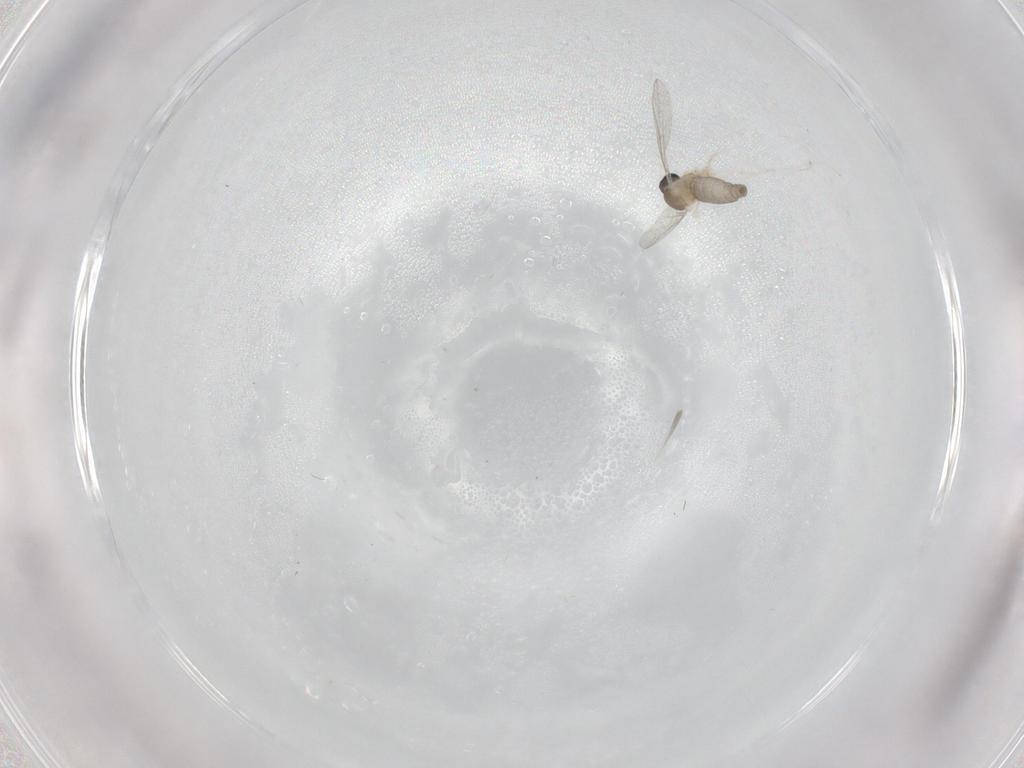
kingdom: Animalia
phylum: Arthropoda
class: Insecta
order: Diptera
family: Cecidomyiidae
